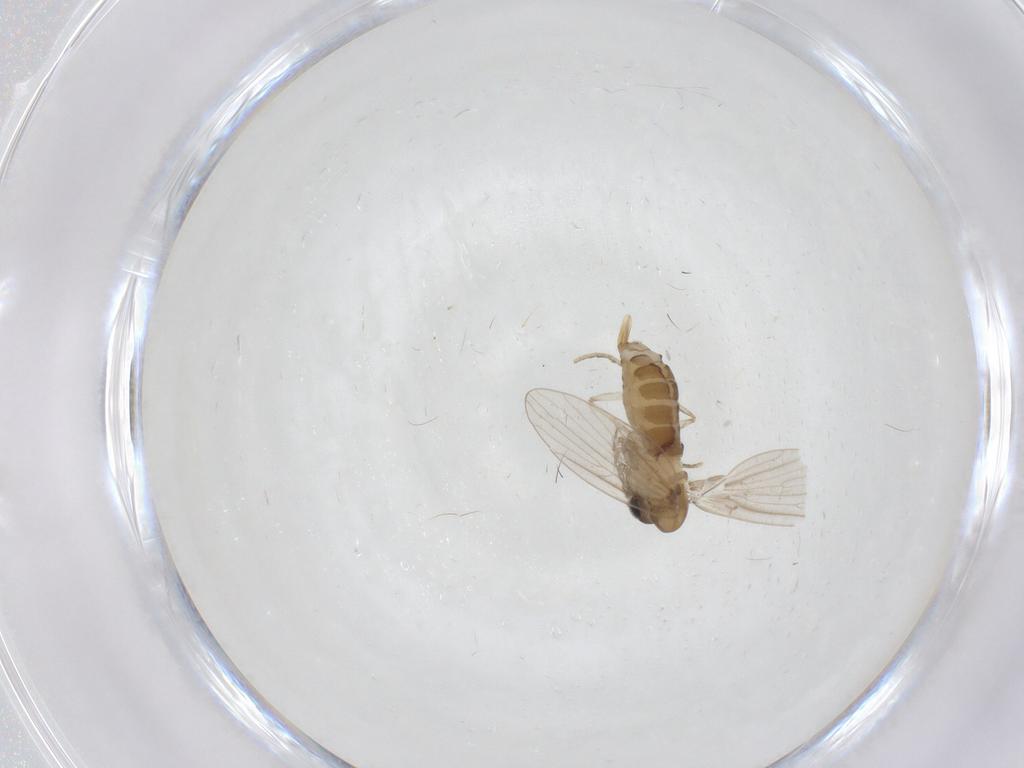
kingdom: Animalia
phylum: Arthropoda
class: Insecta
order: Diptera
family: Psychodidae
